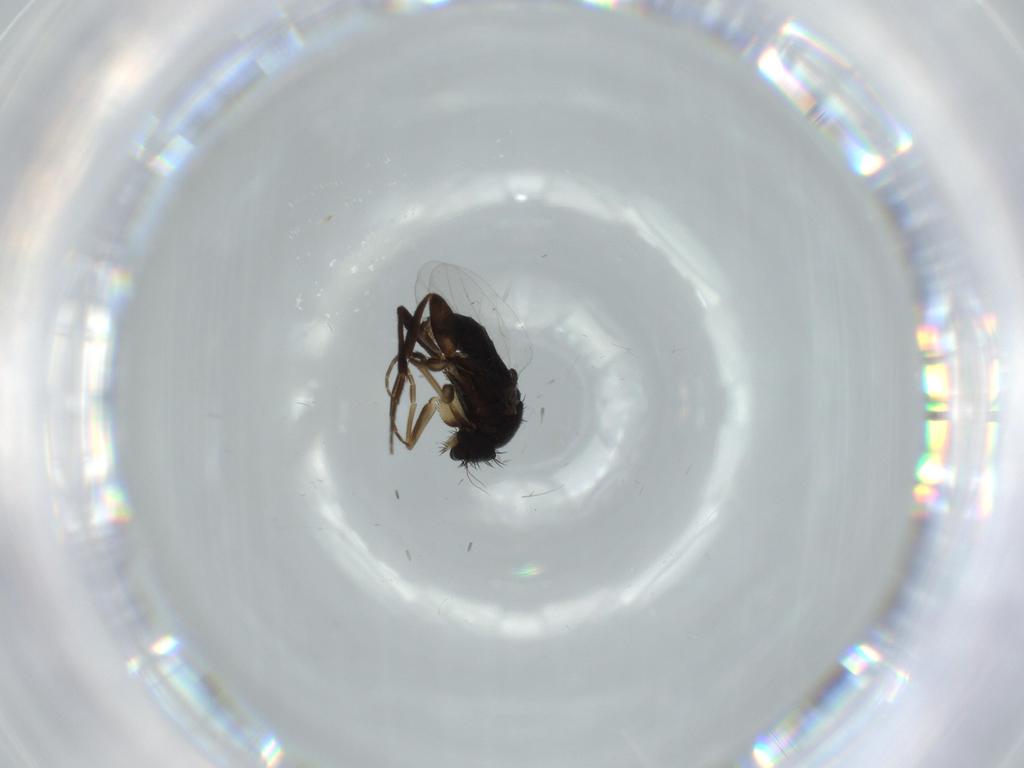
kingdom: Animalia
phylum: Arthropoda
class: Insecta
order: Diptera
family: Phoridae
